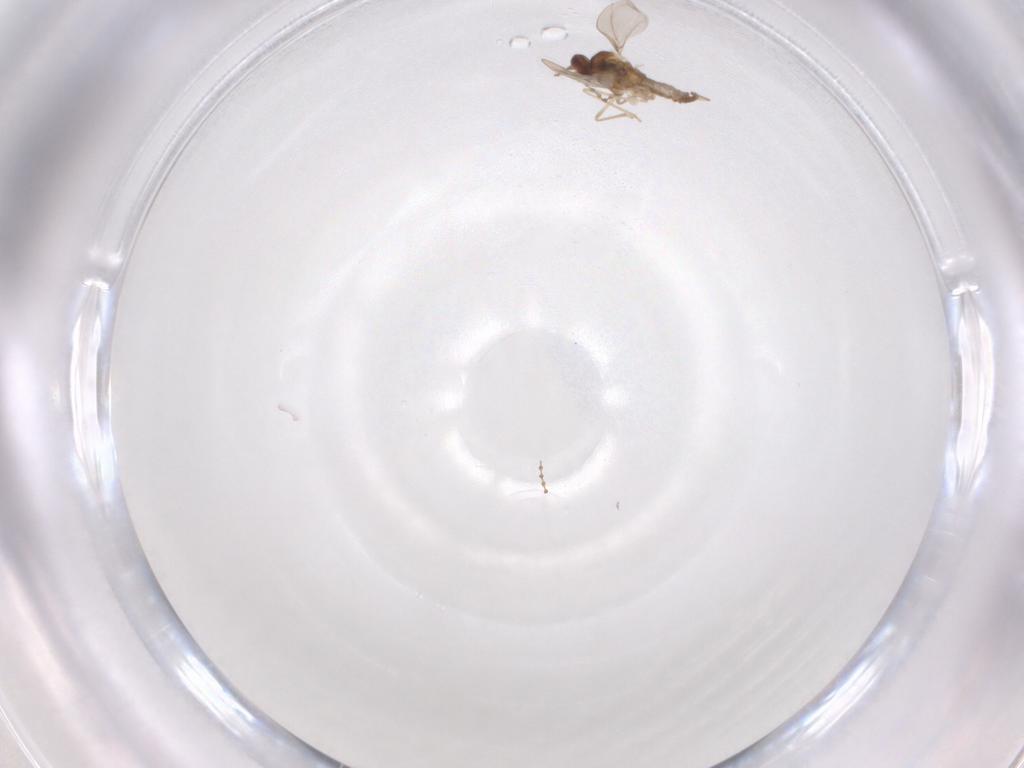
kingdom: Animalia
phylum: Arthropoda
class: Insecta
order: Diptera
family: Cecidomyiidae
